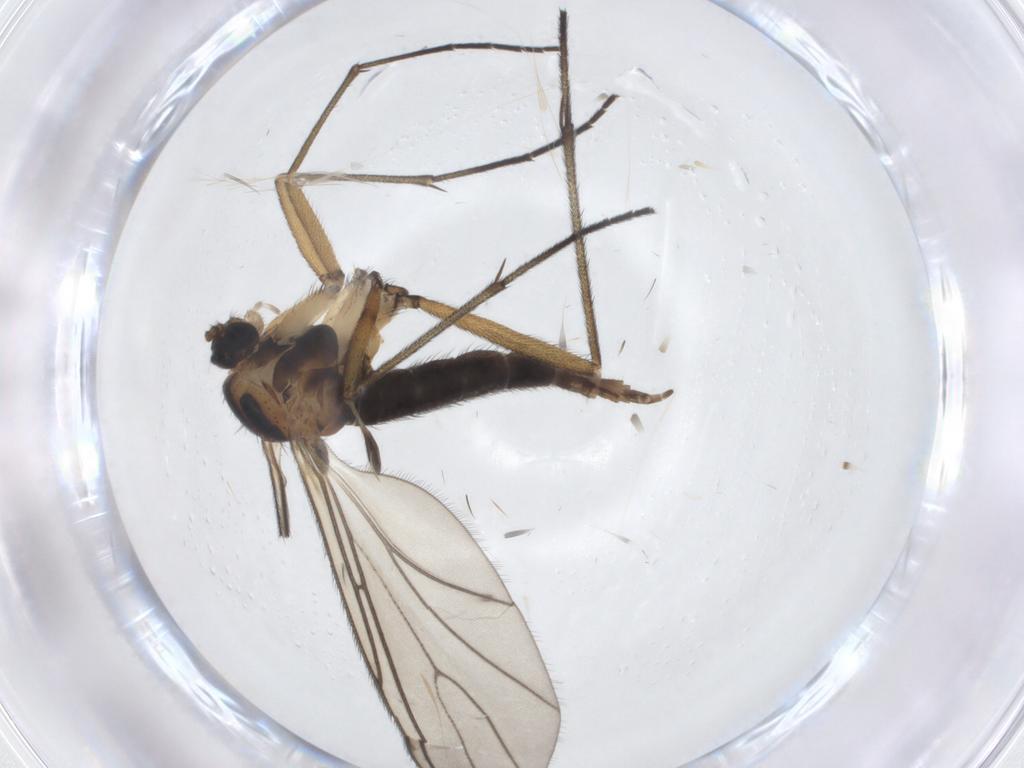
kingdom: Animalia
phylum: Arthropoda
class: Insecta
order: Diptera
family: Sciaridae
